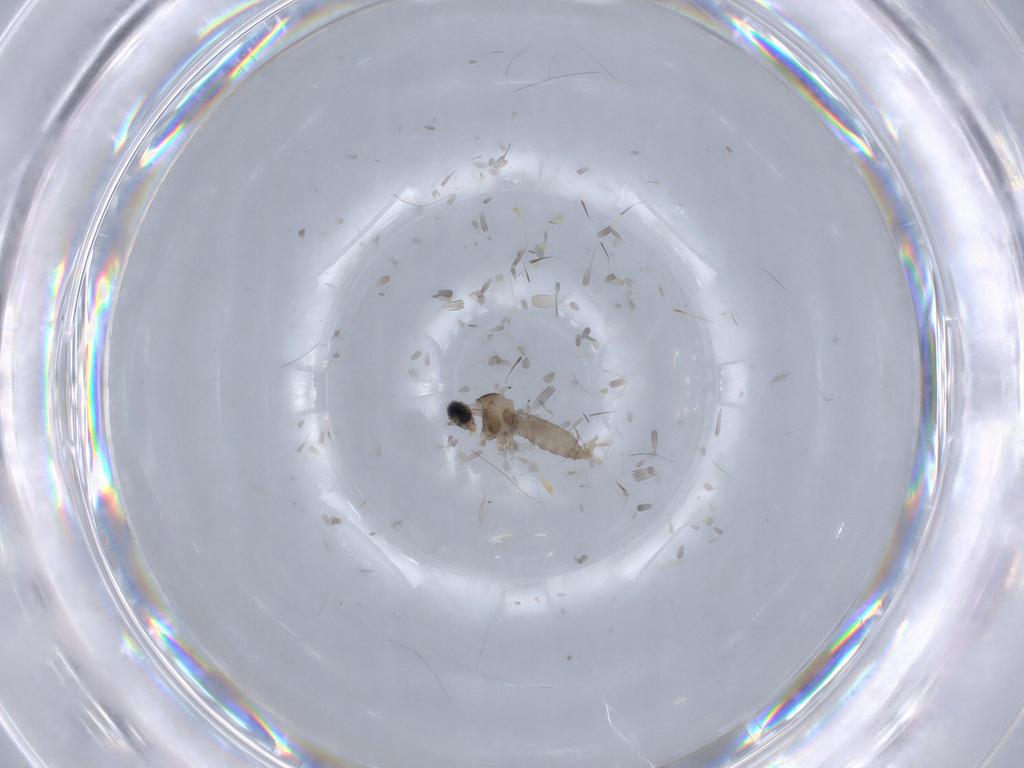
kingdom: Animalia
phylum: Arthropoda
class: Insecta
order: Diptera
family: Cecidomyiidae
